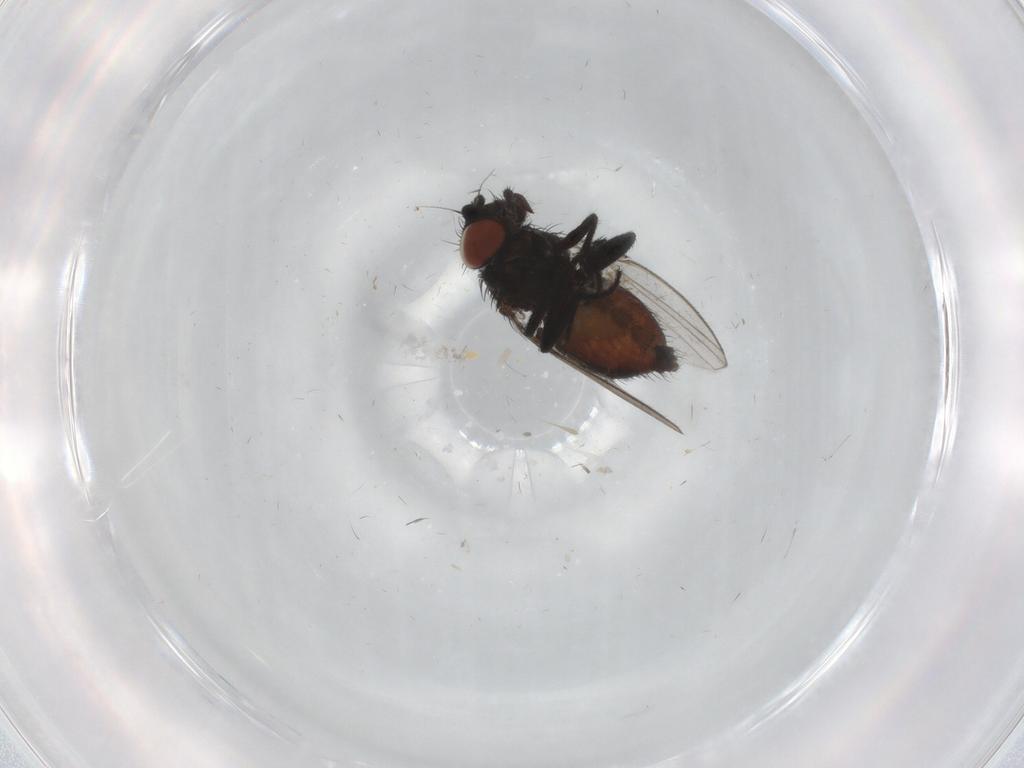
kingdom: Animalia
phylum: Arthropoda
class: Insecta
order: Diptera
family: Milichiidae
